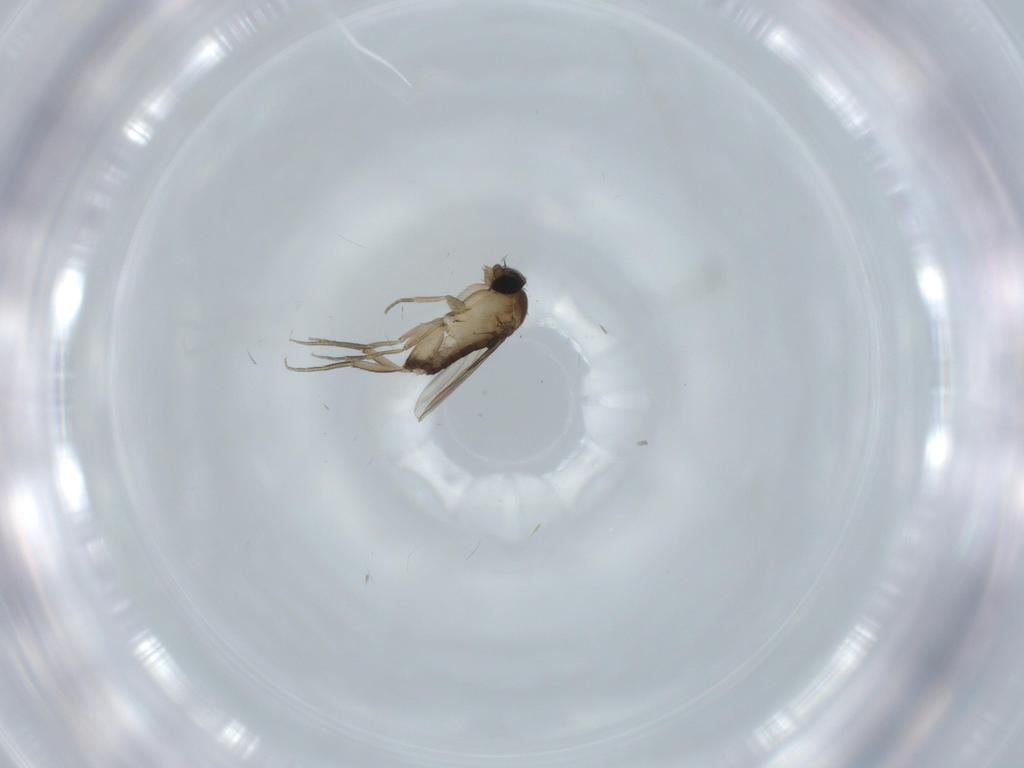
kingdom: Animalia
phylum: Arthropoda
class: Insecta
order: Diptera
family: Phoridae
